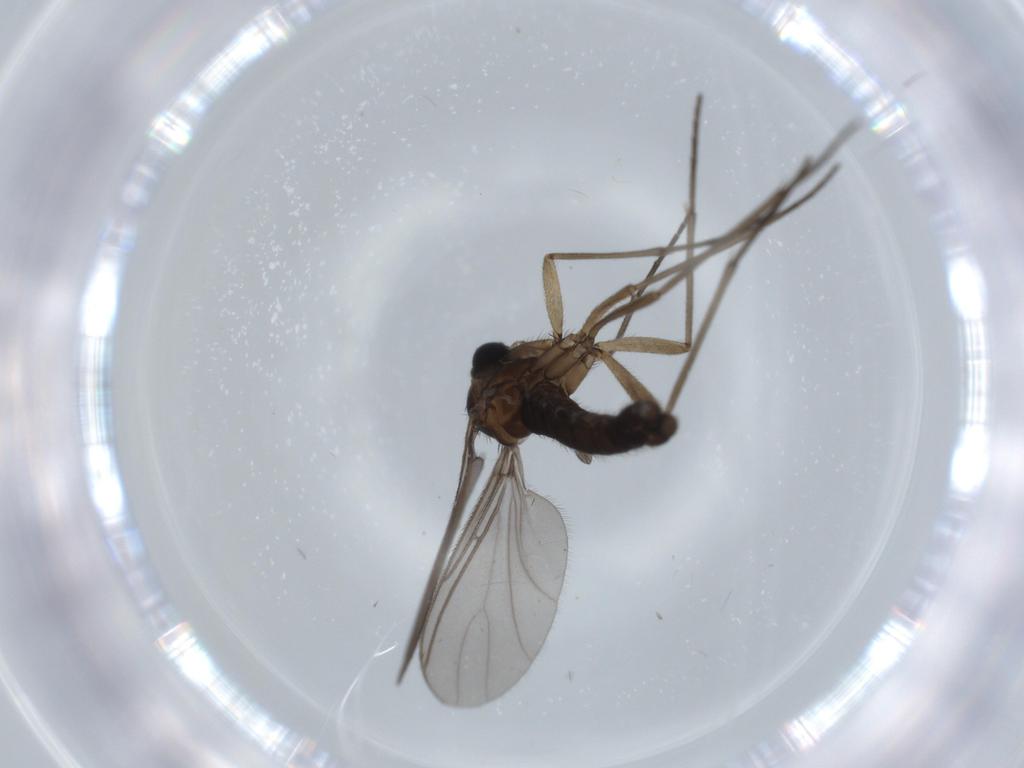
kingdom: Animalia
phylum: Arthropoda
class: Insecta
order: Diptera
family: Sciaridae
